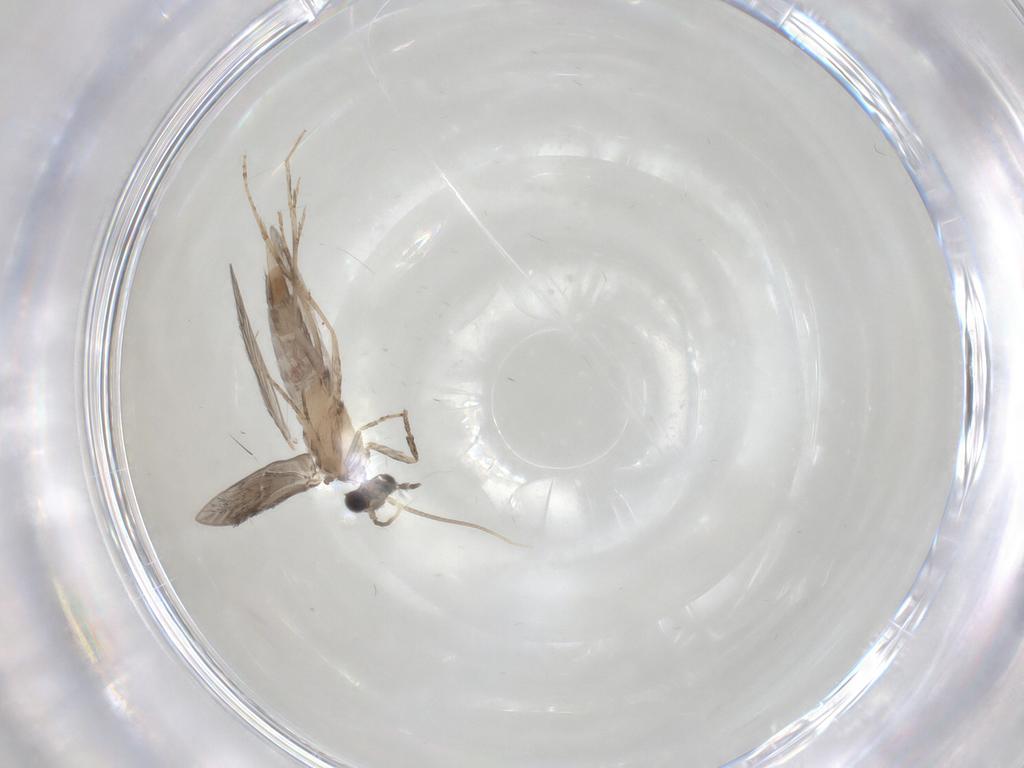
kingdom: Animalia
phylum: Arthropoda
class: Insecta
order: Trichoptera
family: Hydroptilidae
